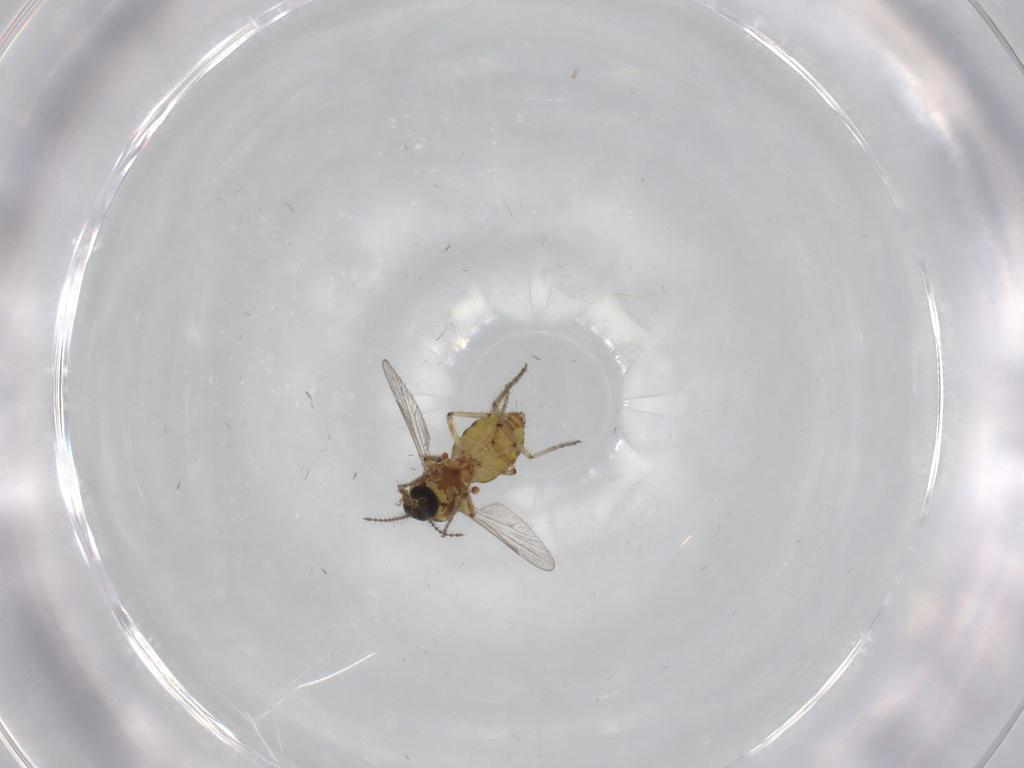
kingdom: Animalia
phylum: Arthropoda
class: Insecta
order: Diptera
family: Ceratopogonidae
